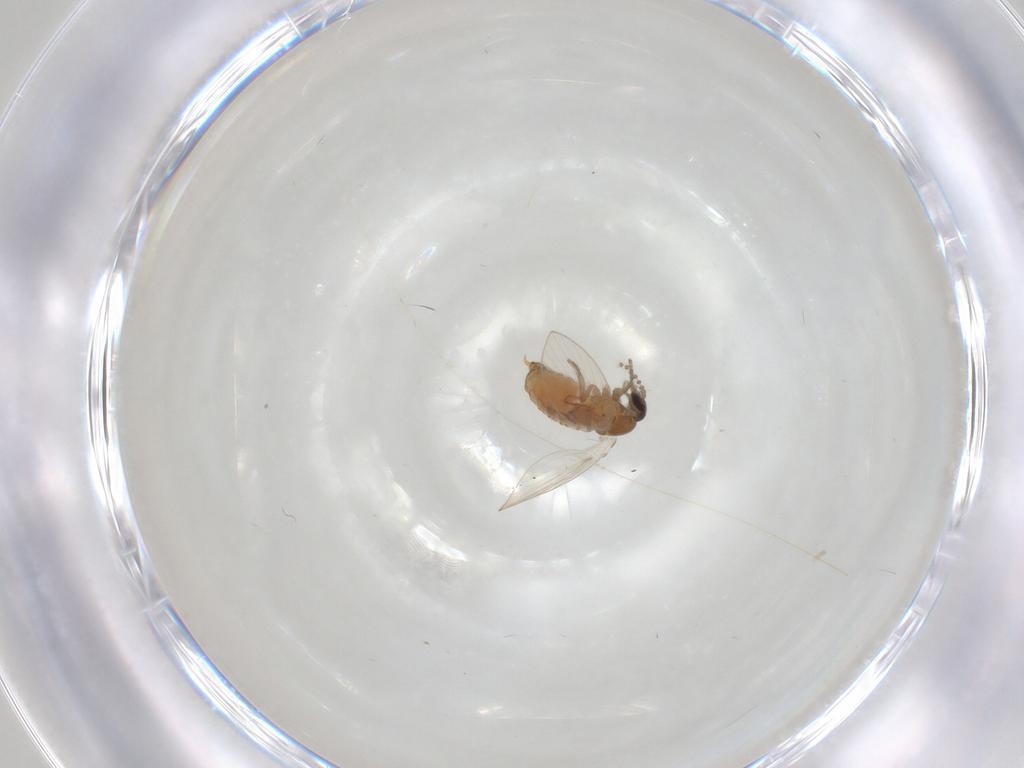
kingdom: Animalia
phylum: Arthropoda
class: Insecta
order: Diptera
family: Psychodidae
